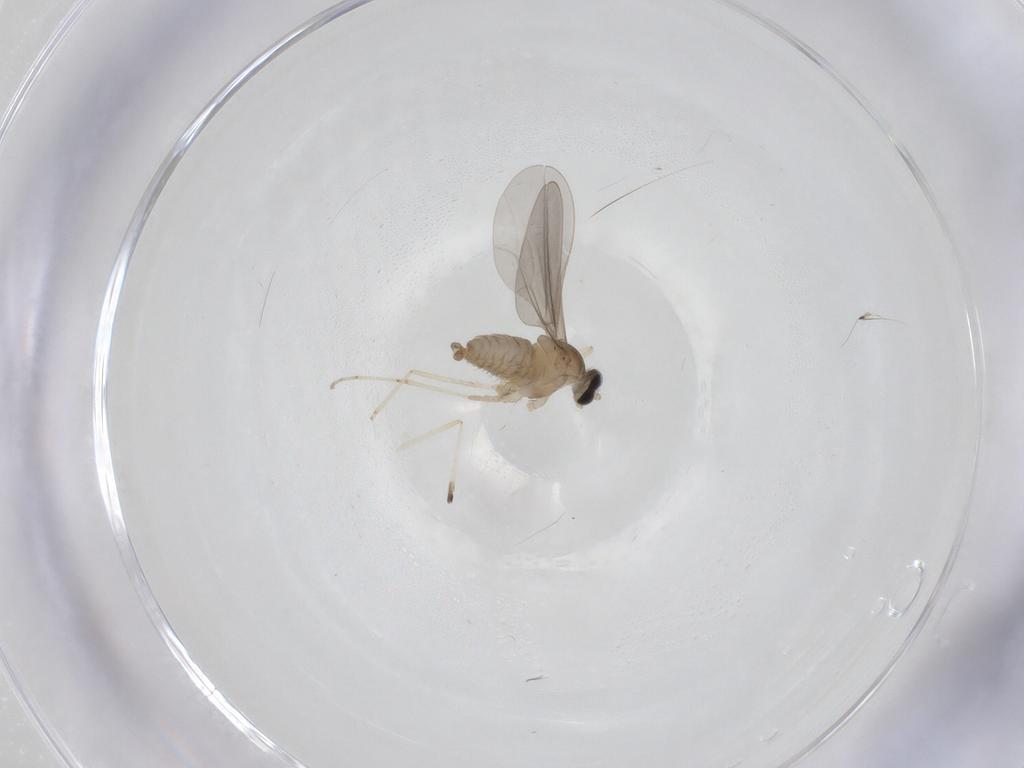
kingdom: Animalia
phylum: Arthropoda
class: Insecta
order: Diptera
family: Cecidomyiidae
